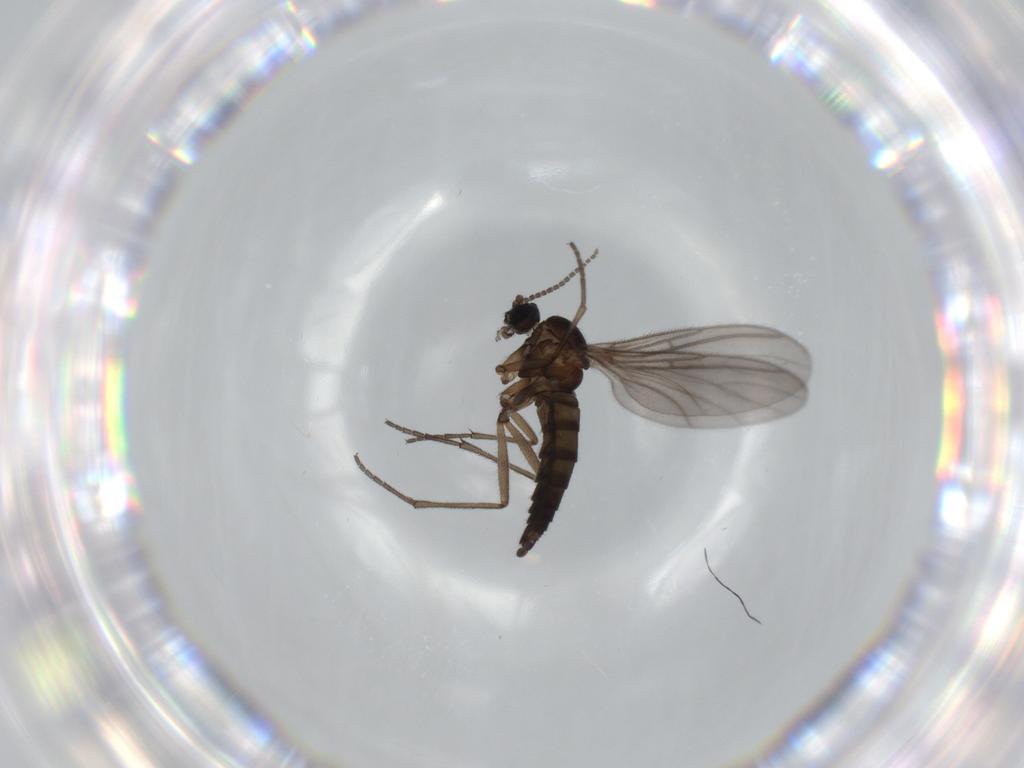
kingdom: Animalia
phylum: Arthropoda
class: Insecta
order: Diptera
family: Sciaridae
